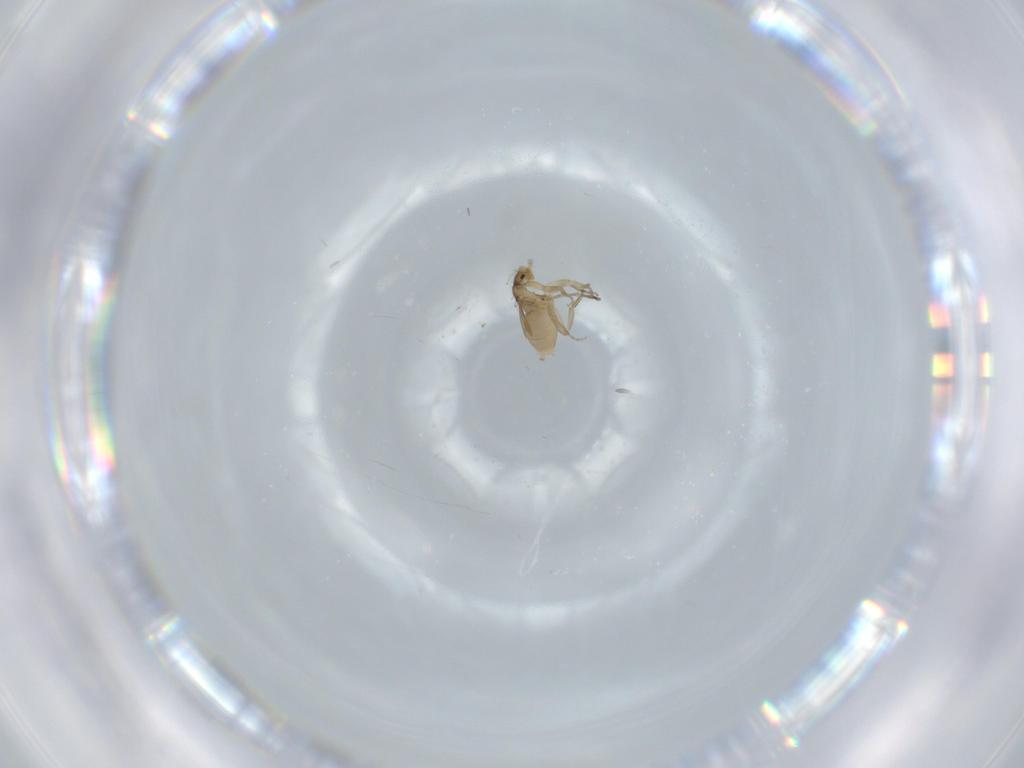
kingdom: Animalia
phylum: Arthropoda
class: Insecta
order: Diptera
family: Phoridae
